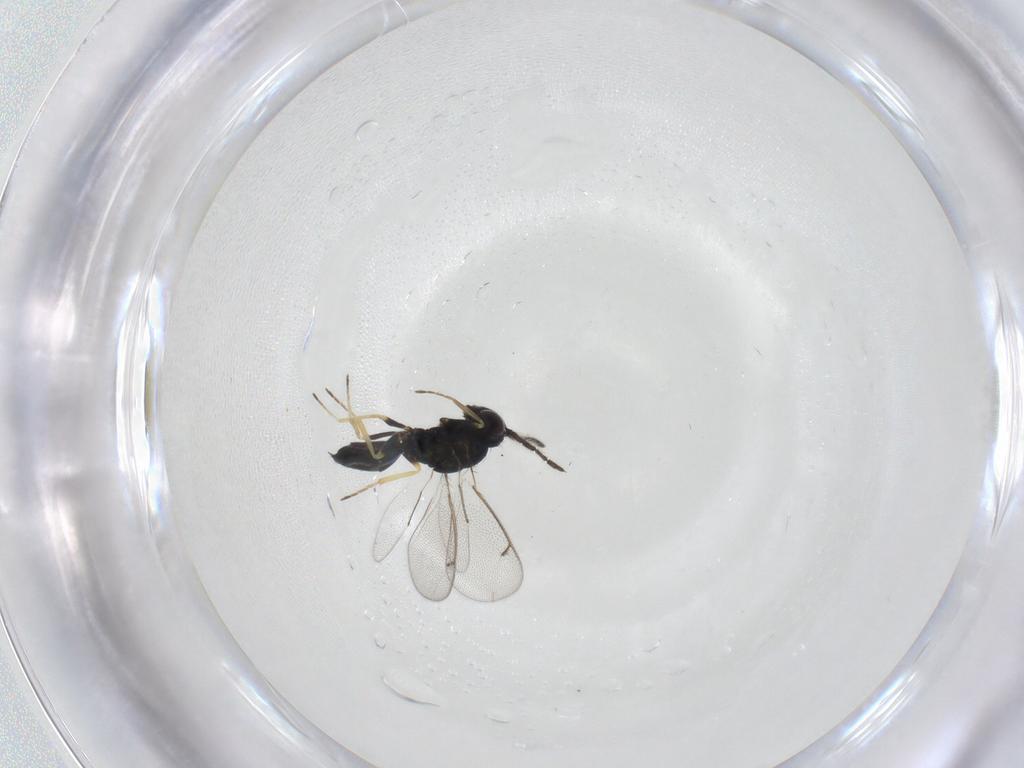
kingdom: Animalia
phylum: Arthropoda
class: Insecta
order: Hymenoptera
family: Eulophidae
